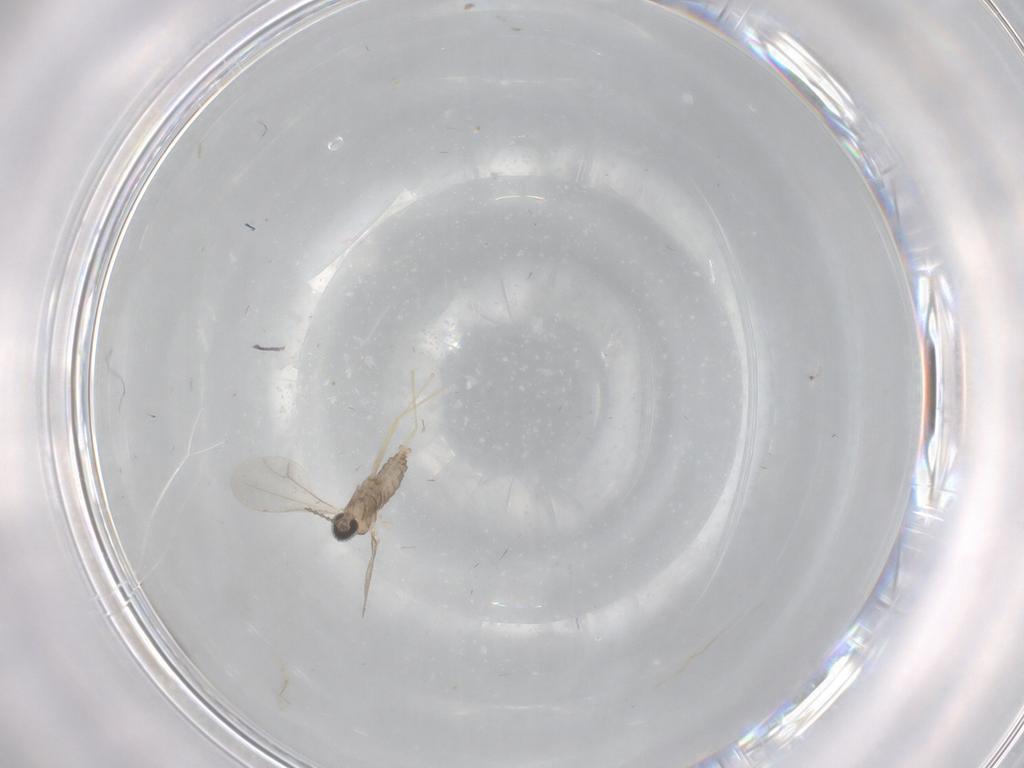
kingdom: Animalia
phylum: Arthropoda
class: Insecta
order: Diptera
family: Cecidomyiidae
